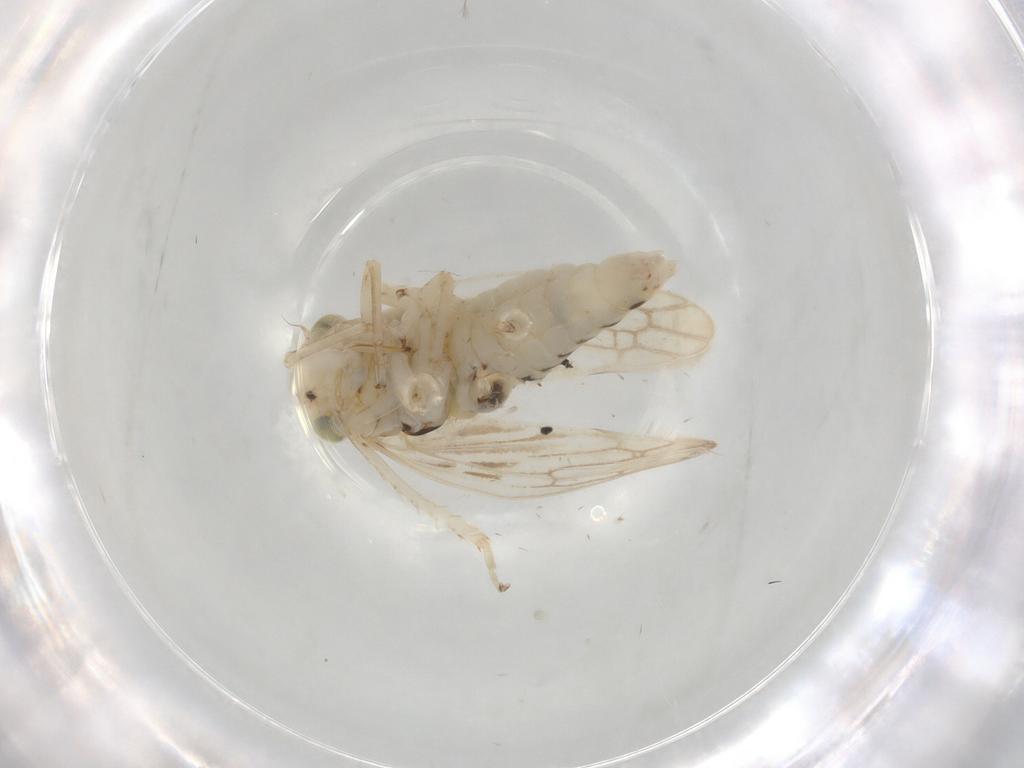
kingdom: Animalia
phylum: Arthropoda
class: Insecta
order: Hemiptera
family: Cicadellidae
